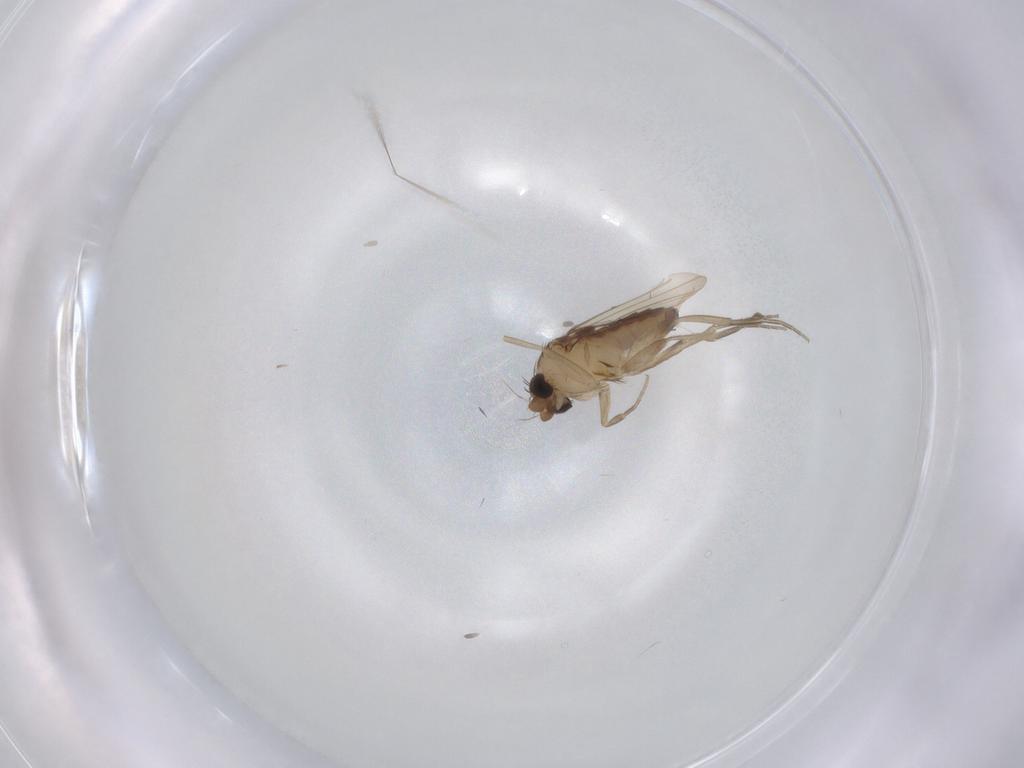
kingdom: Animalia
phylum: Arthropoda
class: Insecta
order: Diptera
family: Phoridae
